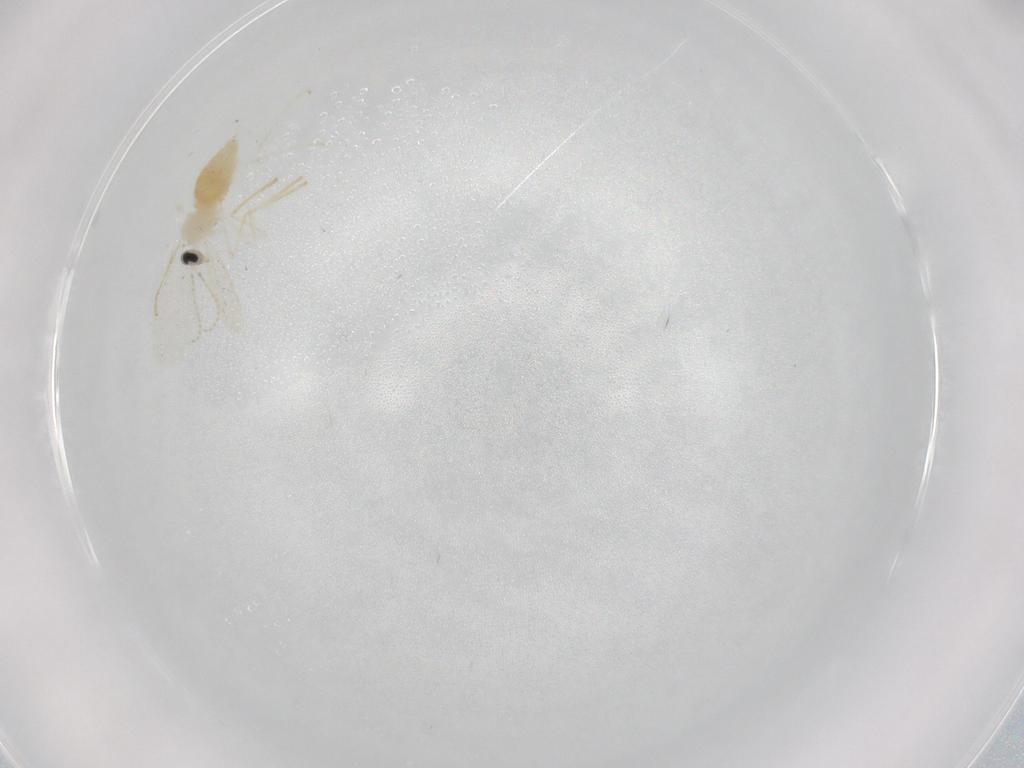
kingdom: Animalia
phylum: Arthropoda
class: Insecta
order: Diptera
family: Cecidomyiidae
